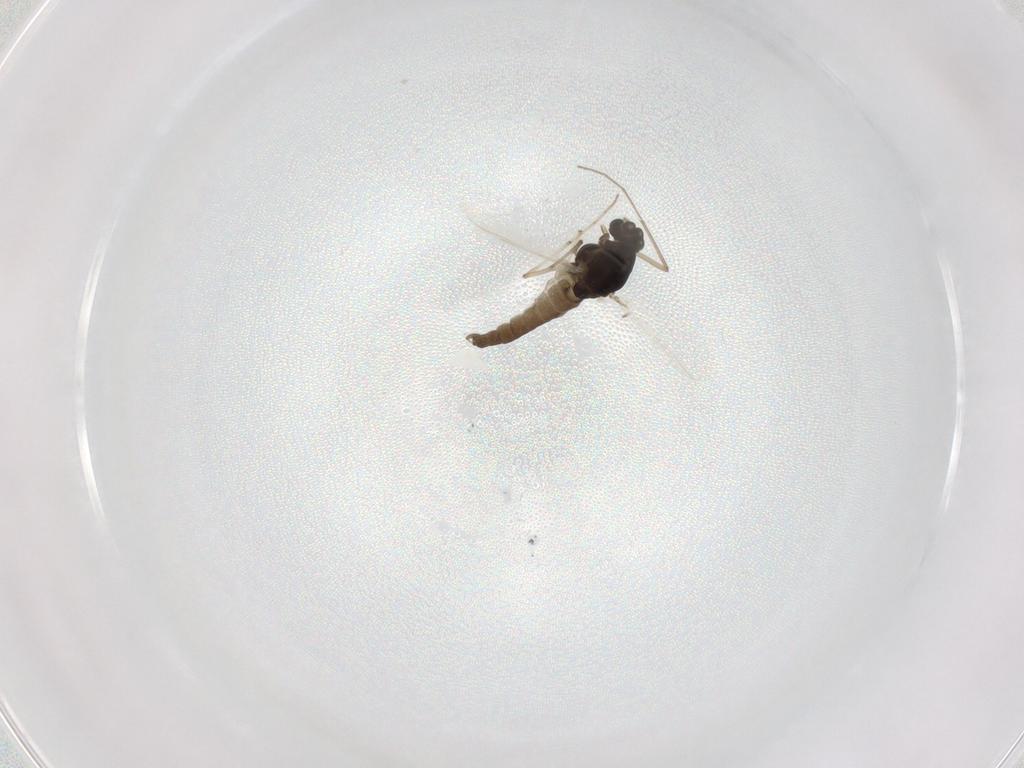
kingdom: Animalia
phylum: Arthropoda
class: Insecta
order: Diptera
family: Chironomidae
